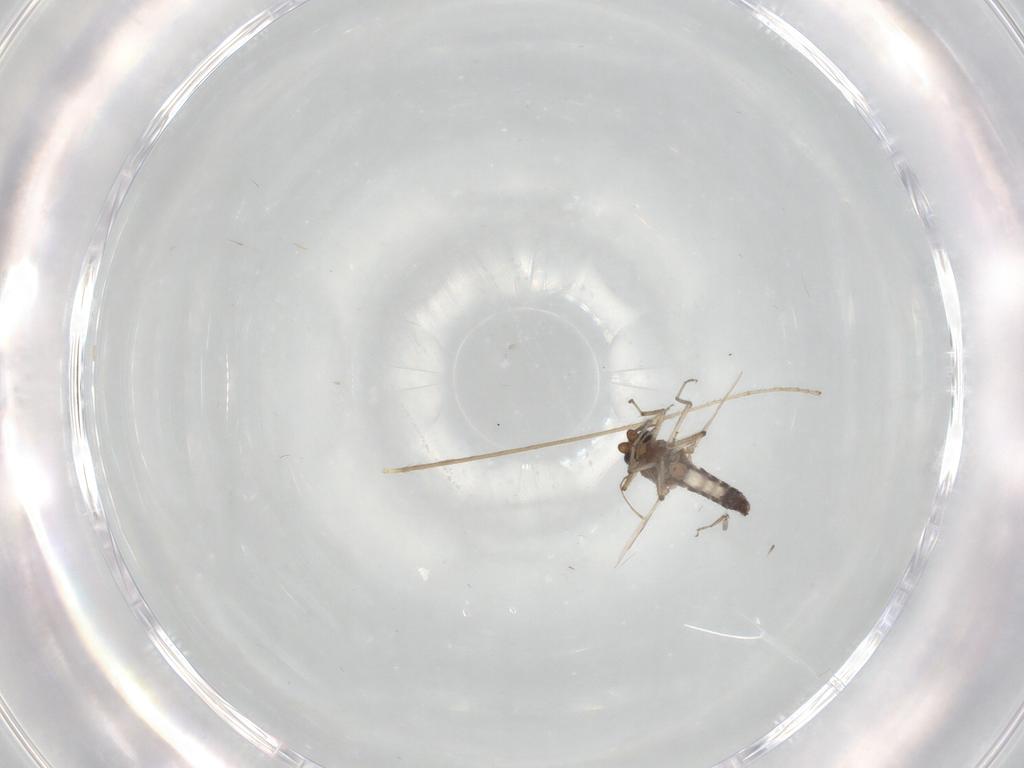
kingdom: Animalia
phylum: Arthropoda
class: Insecta
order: Diptera
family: Ceratopogonidae
